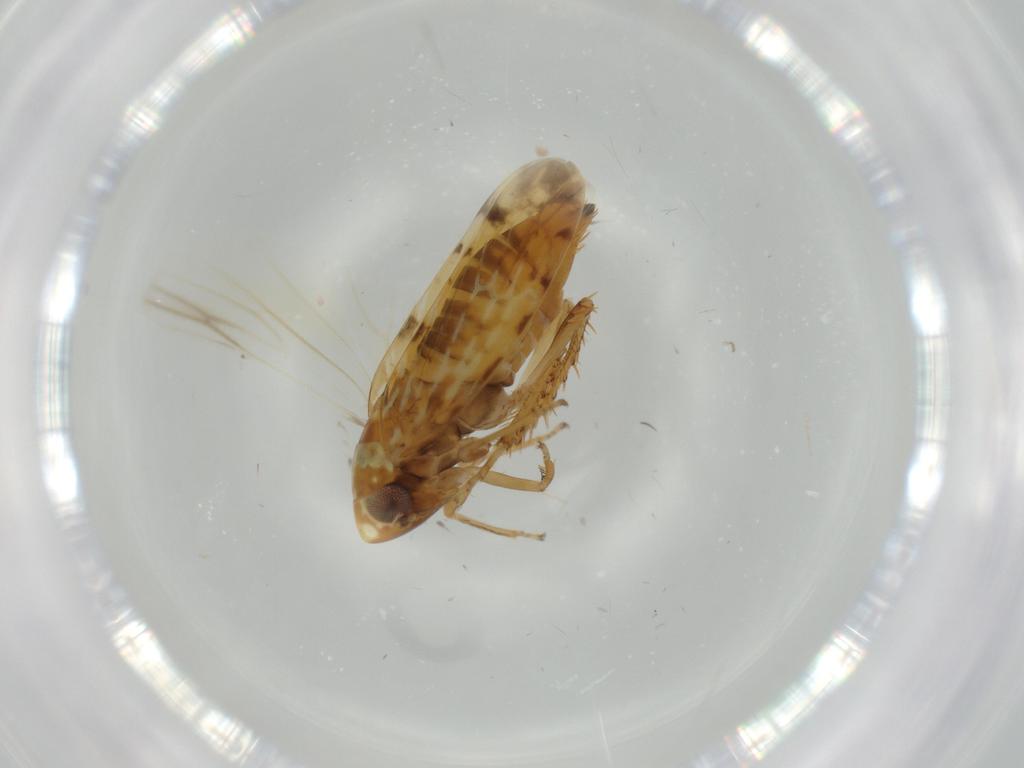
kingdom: Animalia
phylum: Arthropoda
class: Insecta
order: Hemiptera
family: Cicadellidae
